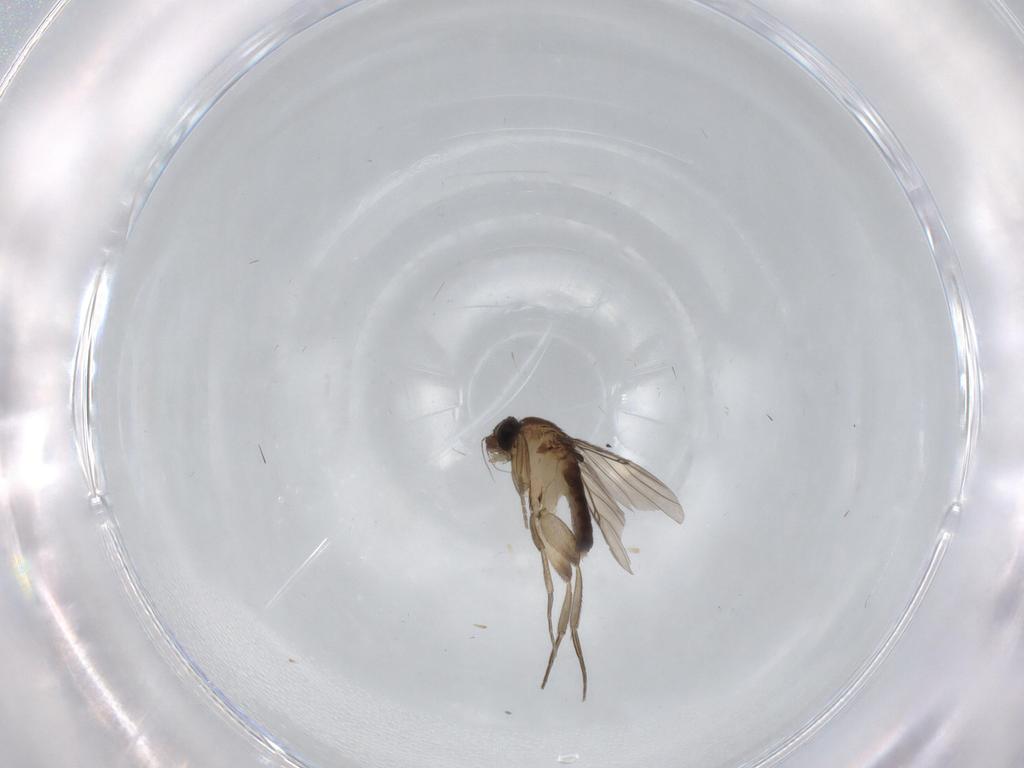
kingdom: Animalia
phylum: Arthropoda
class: Insecta
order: Diptera
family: Phoridae
